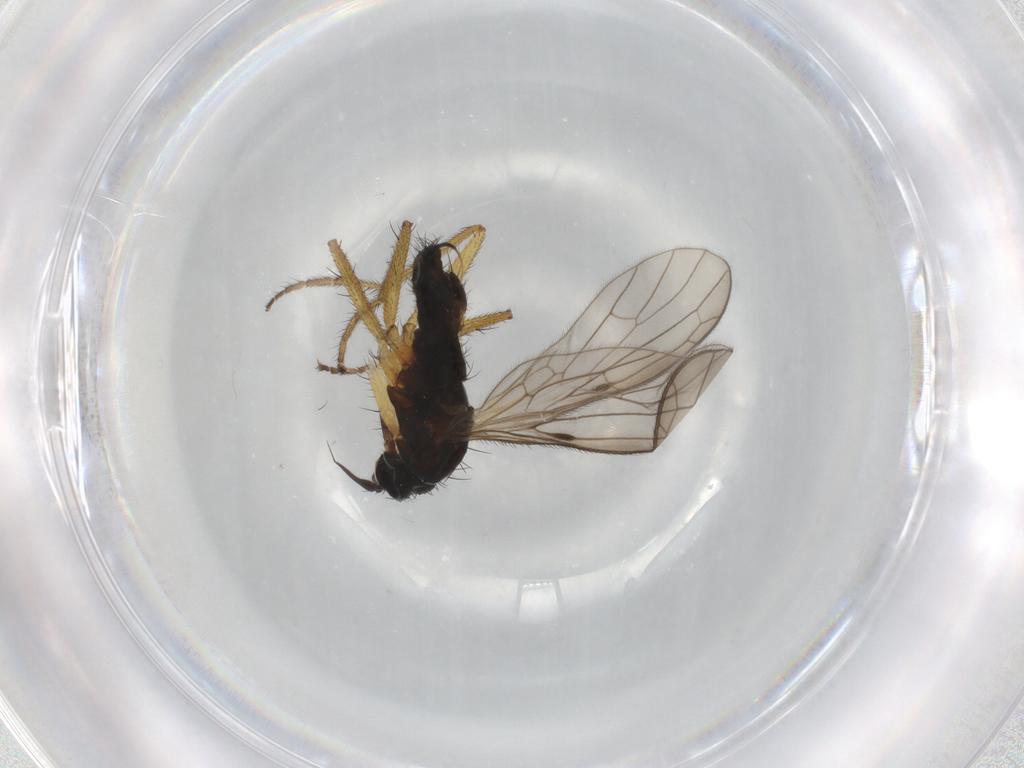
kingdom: Animalia
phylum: Arthropoda
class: Insecta
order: Diptera
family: Empididae
